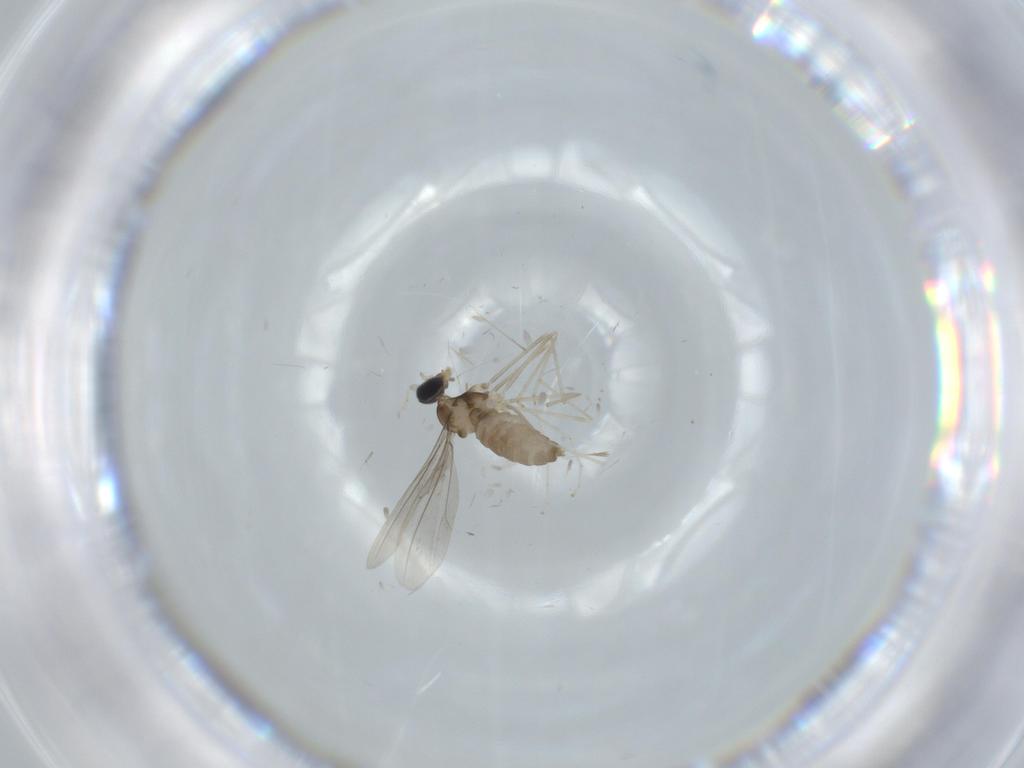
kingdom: Animalia
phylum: Arthropoda
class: Insecta
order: Diptera
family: Cecidomyiidae
